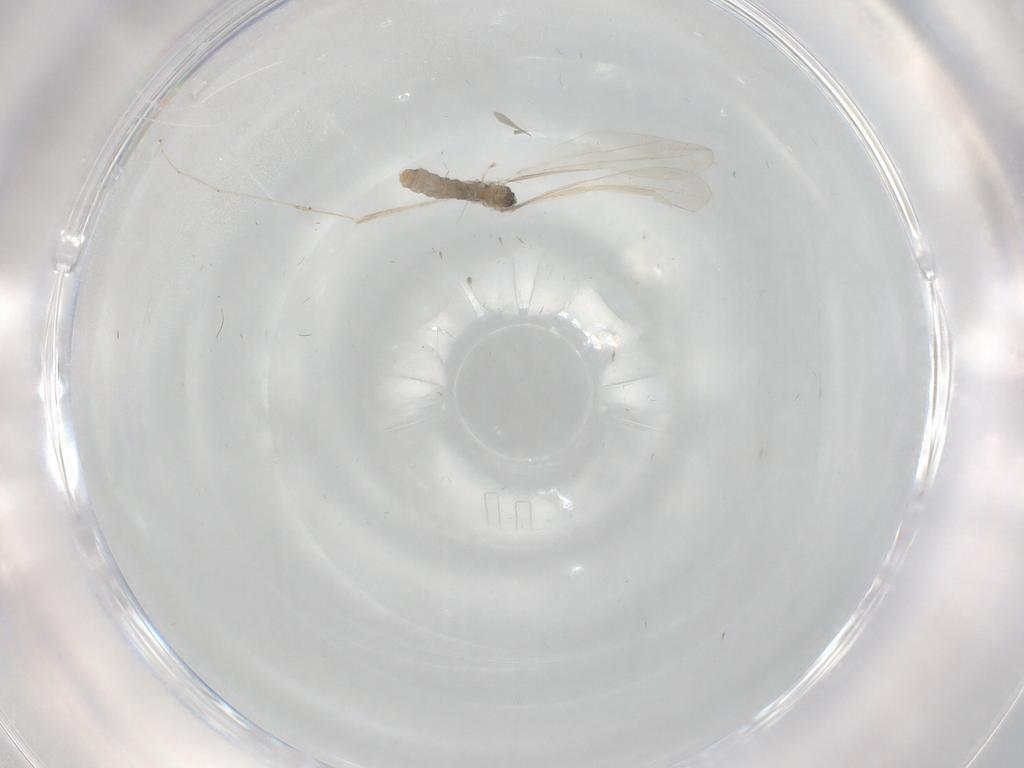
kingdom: Animalia
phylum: Arthropoda
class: Insecta
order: Diptera
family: Cecidomyiidae
